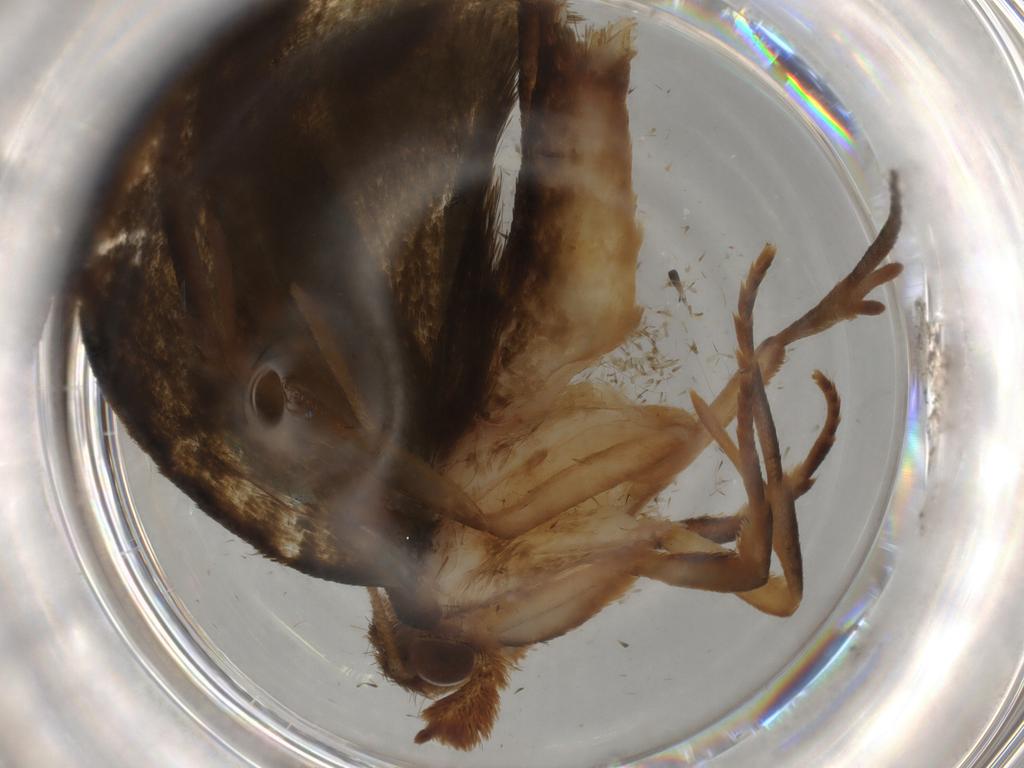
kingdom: Animalia
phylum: Arthropoda
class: Insecta
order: Lepidoptera
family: Geometridae
